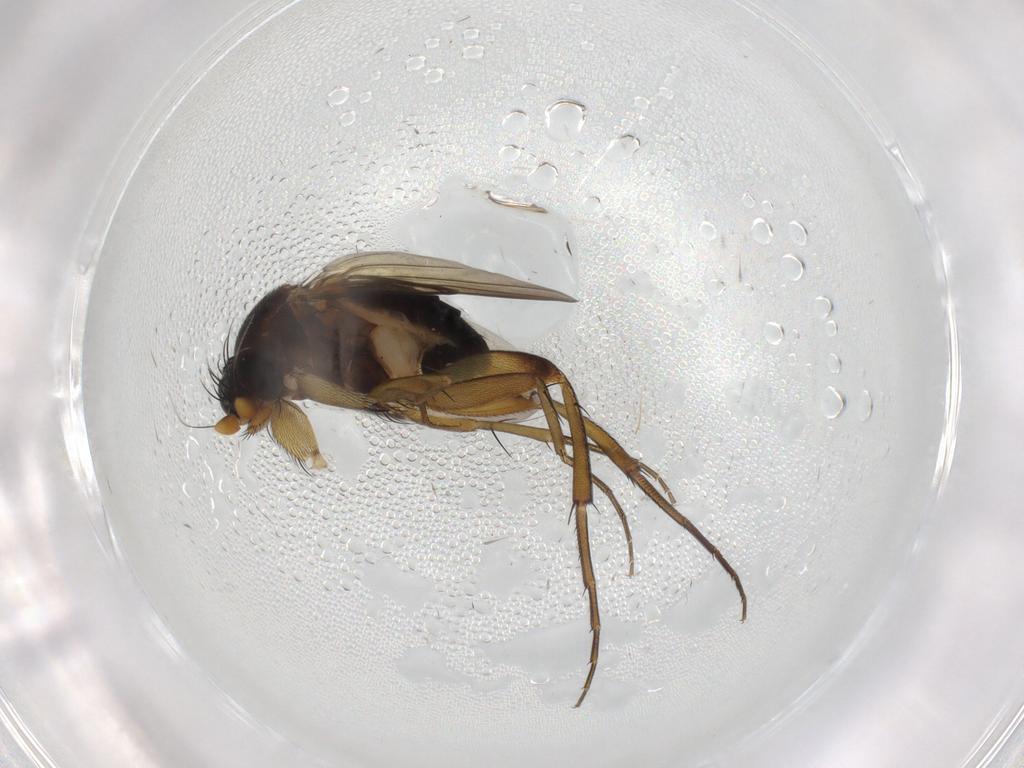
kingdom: Animalia
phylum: Arthropoda
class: Insecta
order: Diptera
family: Phoridae
